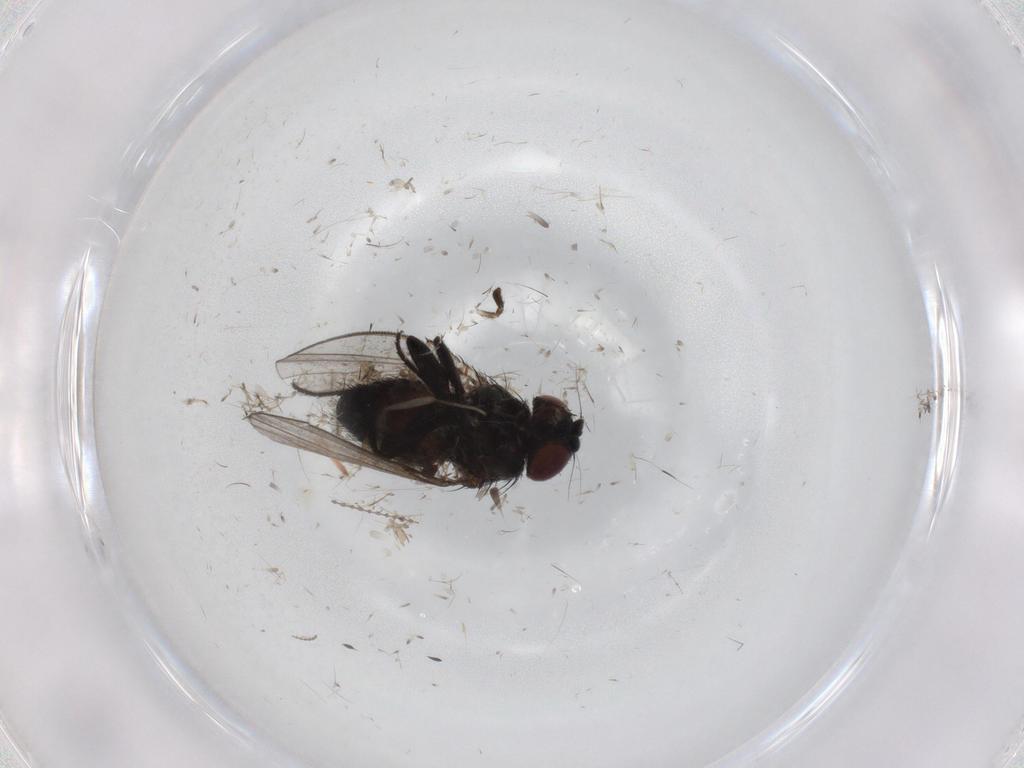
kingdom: Animalia
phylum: Arthropoda
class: Insecta
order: Diptera
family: Milichiidae
